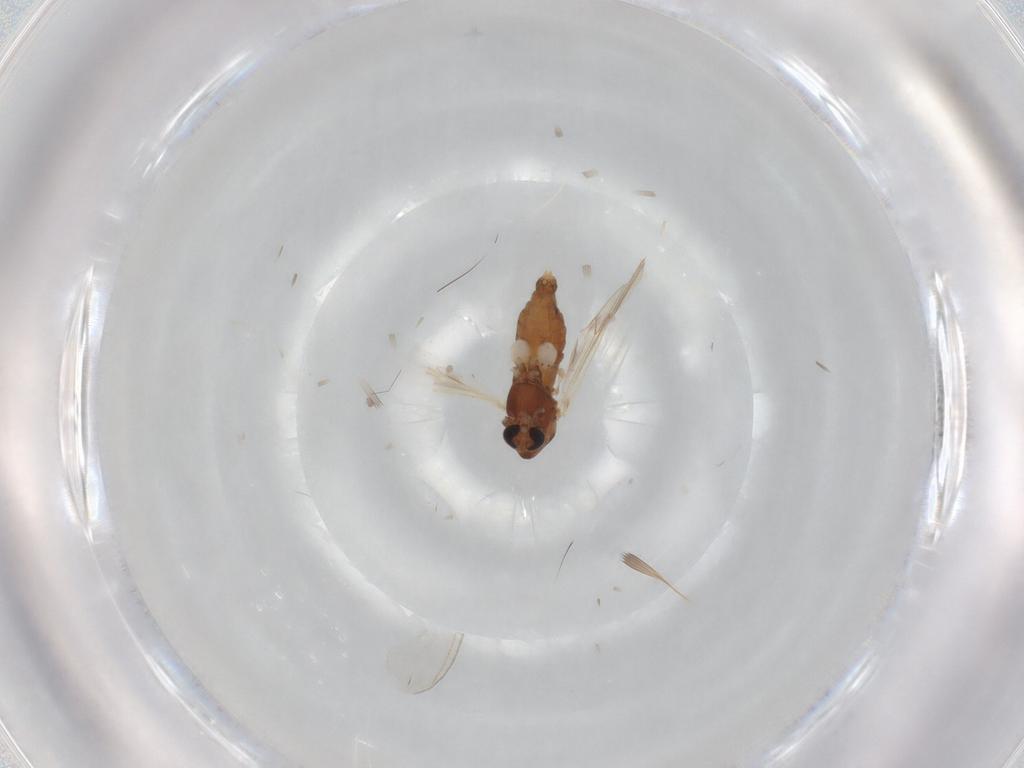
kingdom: Animalia
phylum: Arthropoda
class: Insecta
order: Diptera
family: Chironomidae
